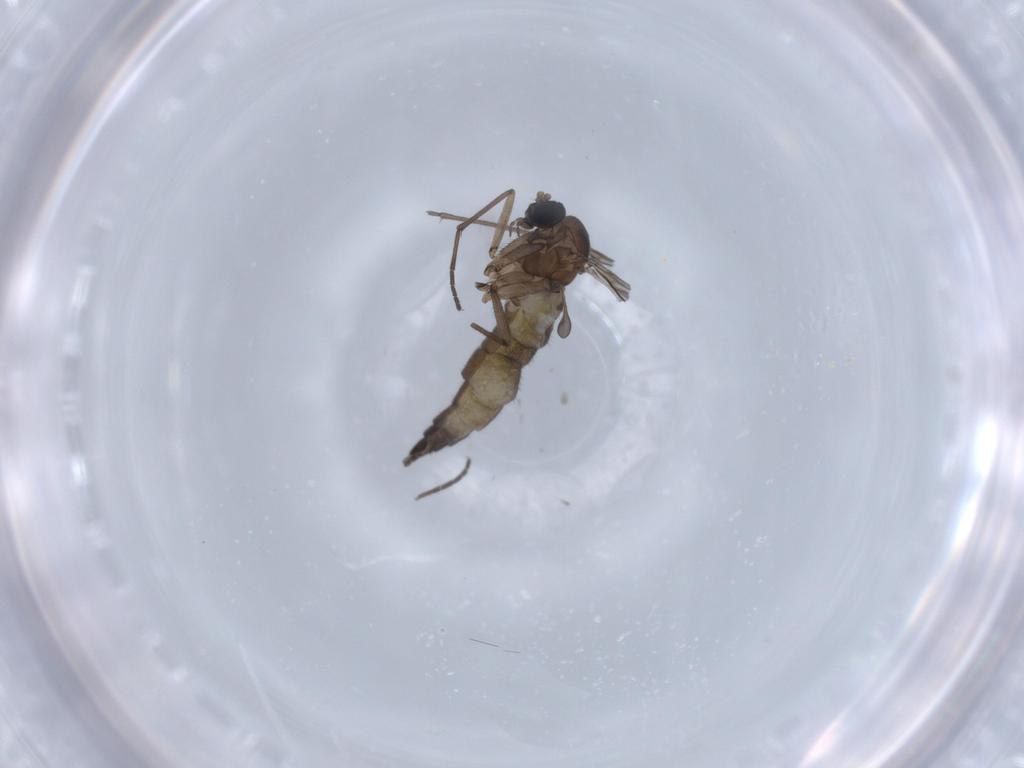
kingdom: Animalia
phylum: Arthropoda
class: Insecta
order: Diptera
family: Sciaridae
